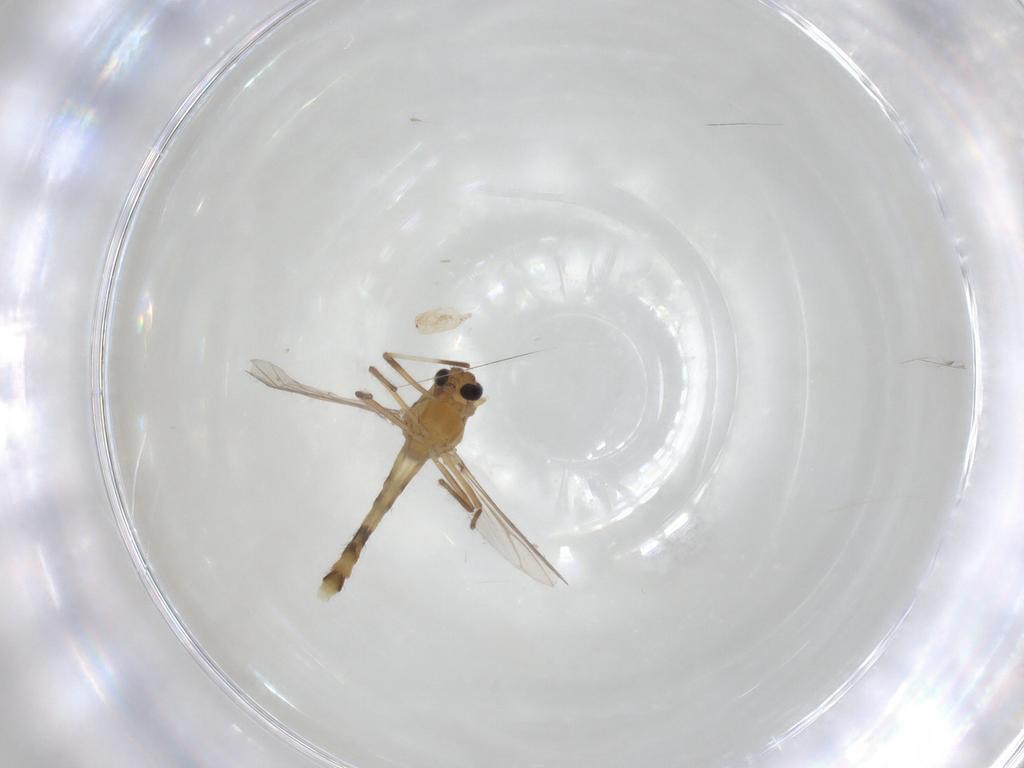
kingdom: Animalia
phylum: Arthropoda
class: Insecta
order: Diptera
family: Chironomidae
